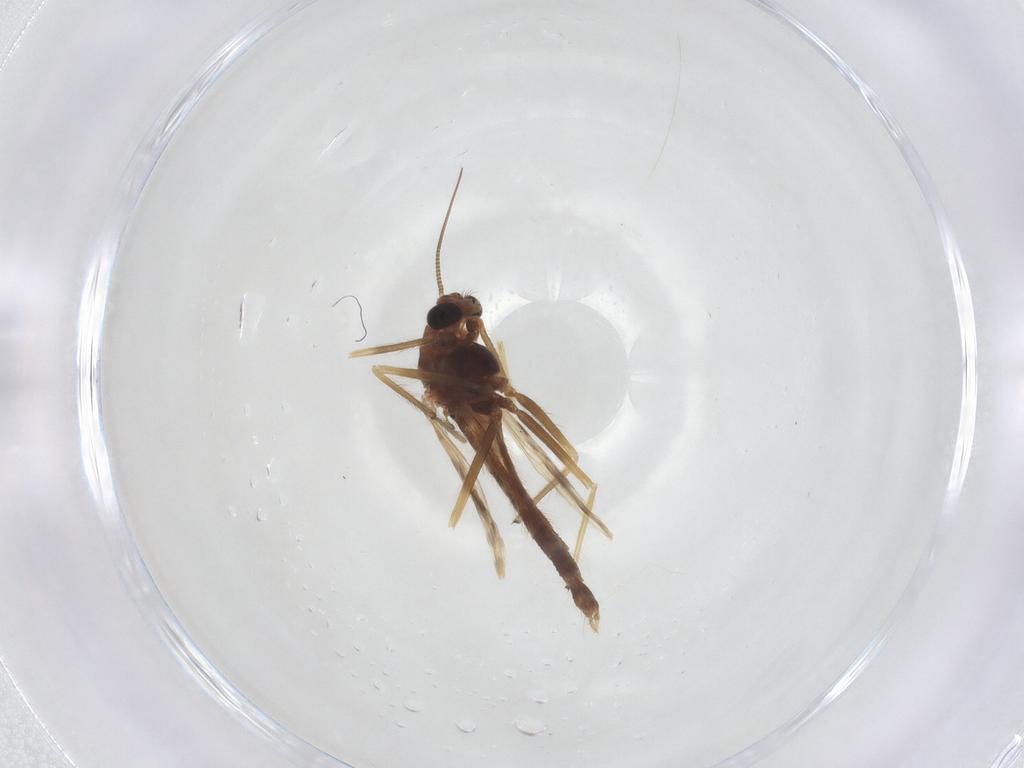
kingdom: Animalia
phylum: Arthropoda
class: Insecta
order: Diptera
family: Chironomidae
